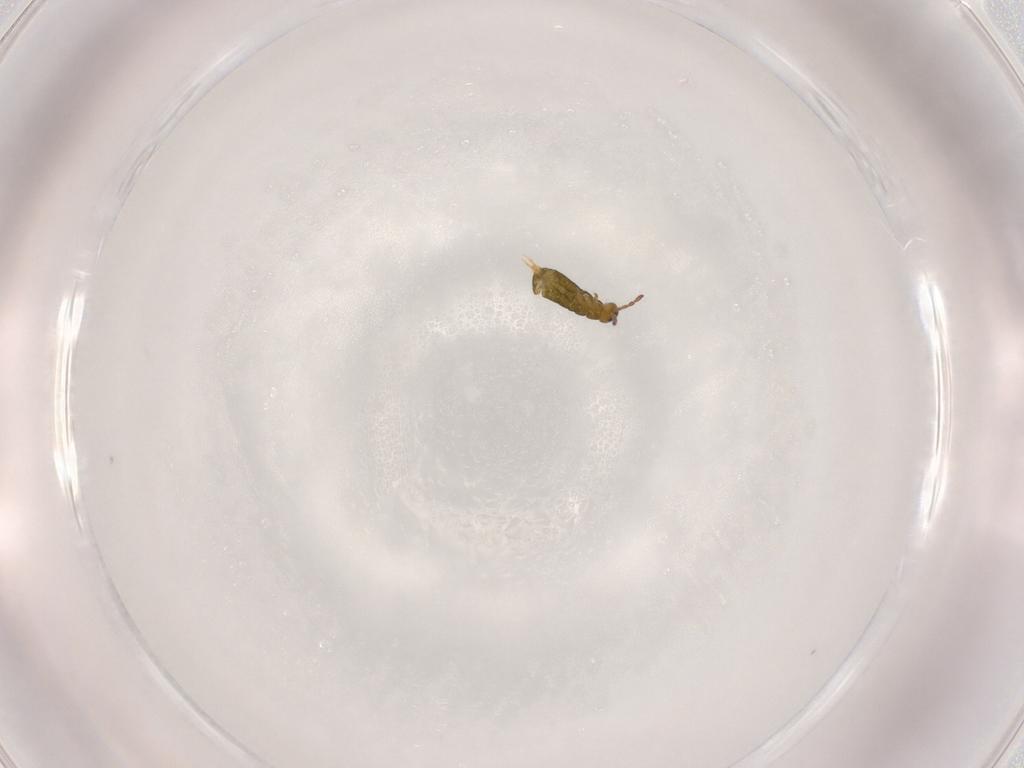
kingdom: Animalia
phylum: Arthropoda
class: Collembola
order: Entomobryomorpha
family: Isotomidae
